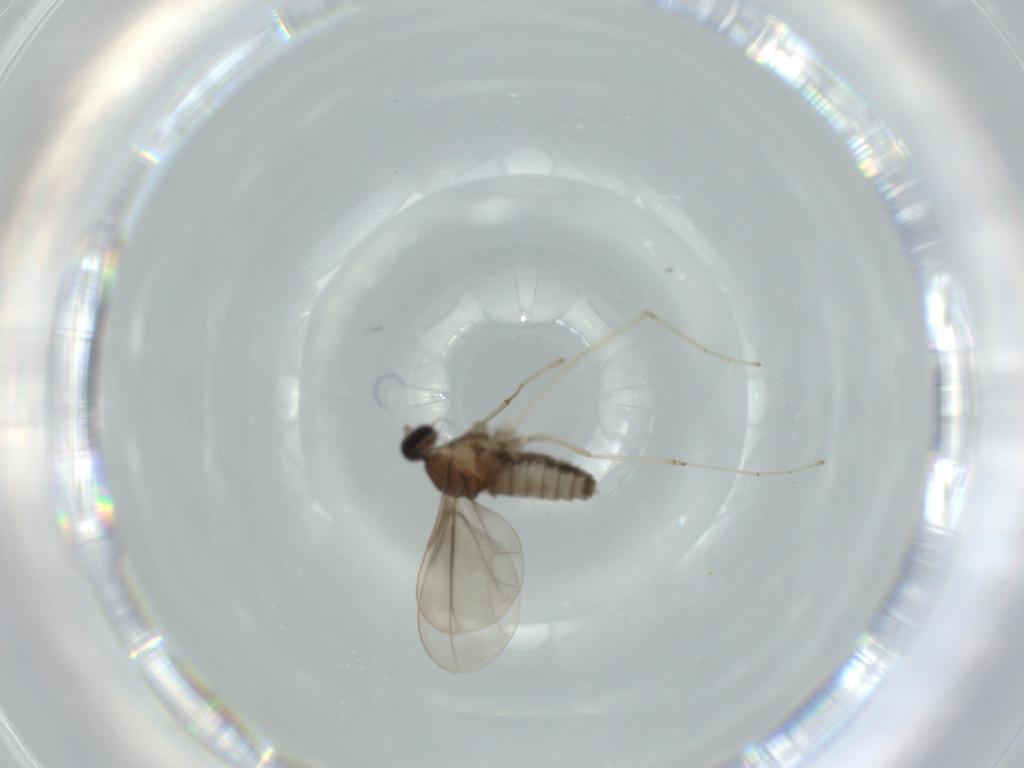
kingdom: Animalia
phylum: Arthropoda
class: Insecta
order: Diptera
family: Cecidomyiidae
